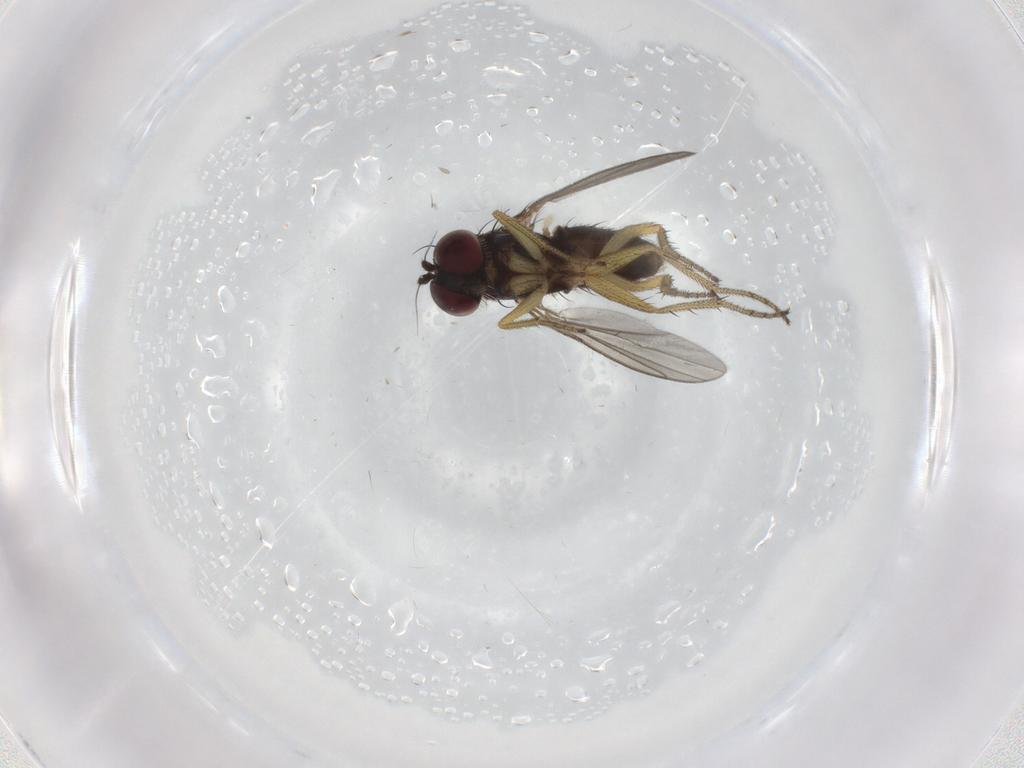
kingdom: Animalia
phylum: Arthropoda
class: Insecta
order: Diptera
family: Dolichopodidae
